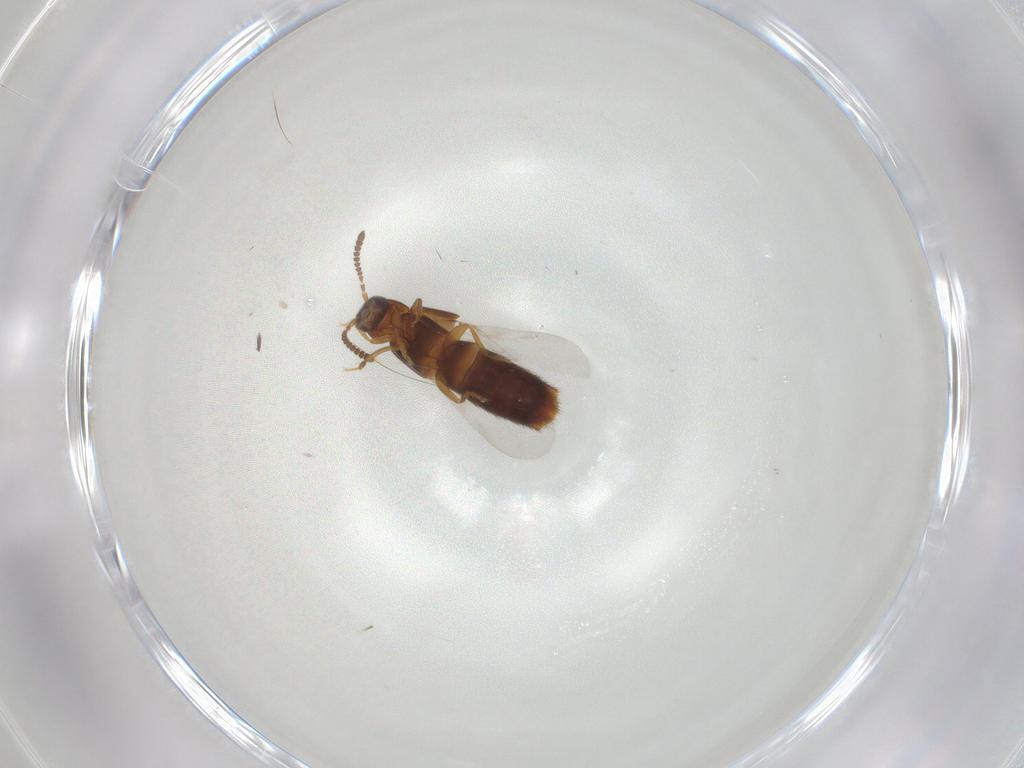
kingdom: Animalia
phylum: Arthropoda
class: Insecta
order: Coleoptera
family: Staphylinidae
